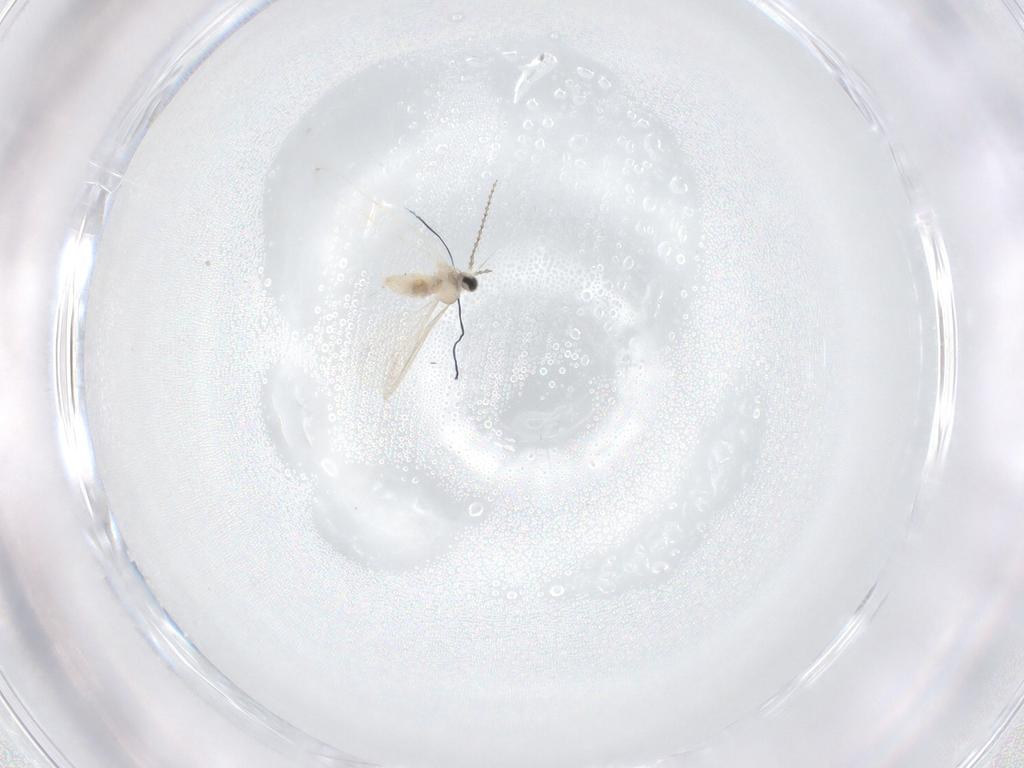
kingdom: Animalia
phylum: Arthropoda
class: Insecta
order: Diptera
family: Cecidomyiidae
